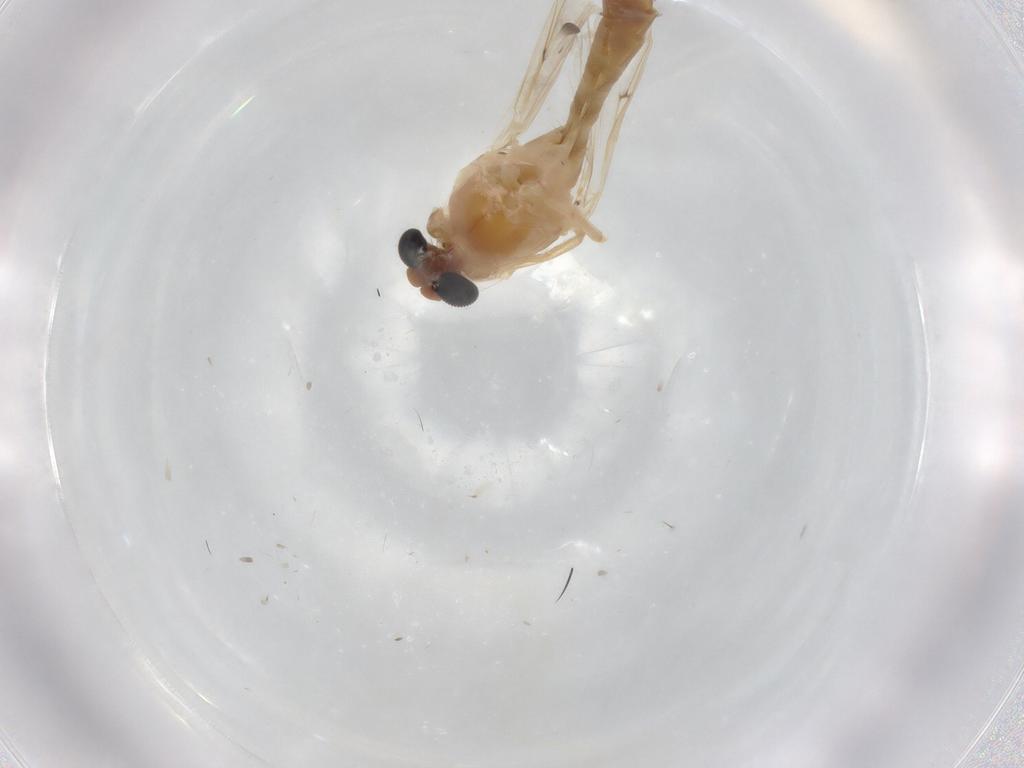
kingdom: Animalia
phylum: Arthropoda
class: Insecta
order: Diptera
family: Ceratopogonidae
